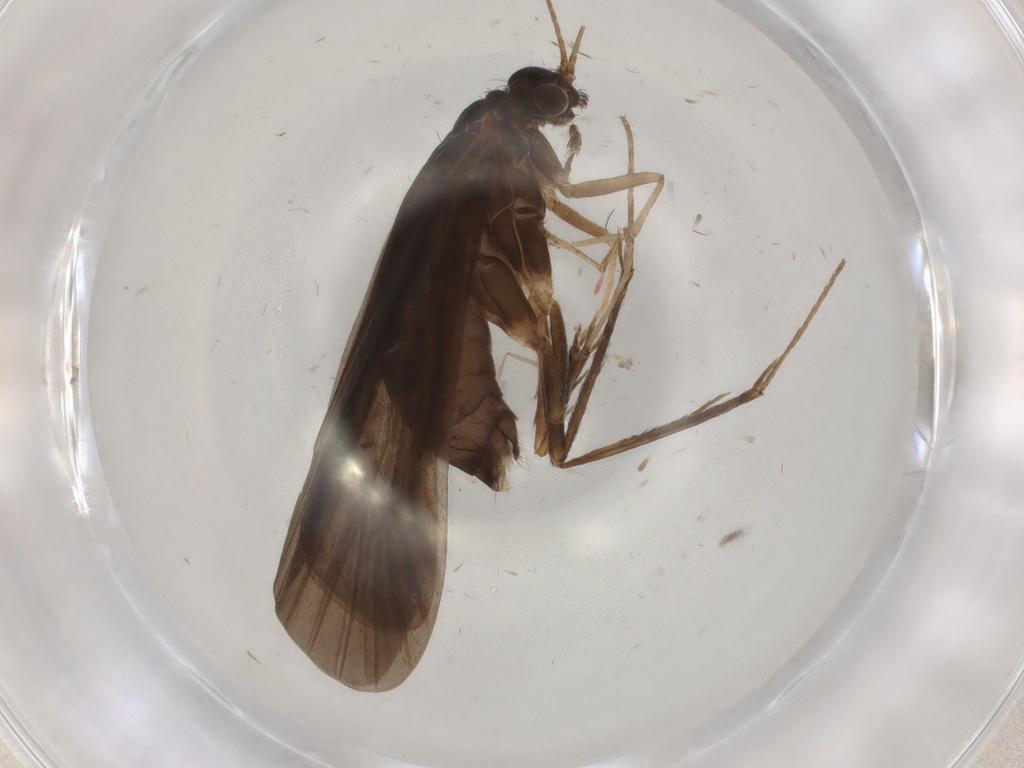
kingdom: Animalia
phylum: Arthropoda
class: Insecta
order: Trichoptera
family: Hydropsychidae
